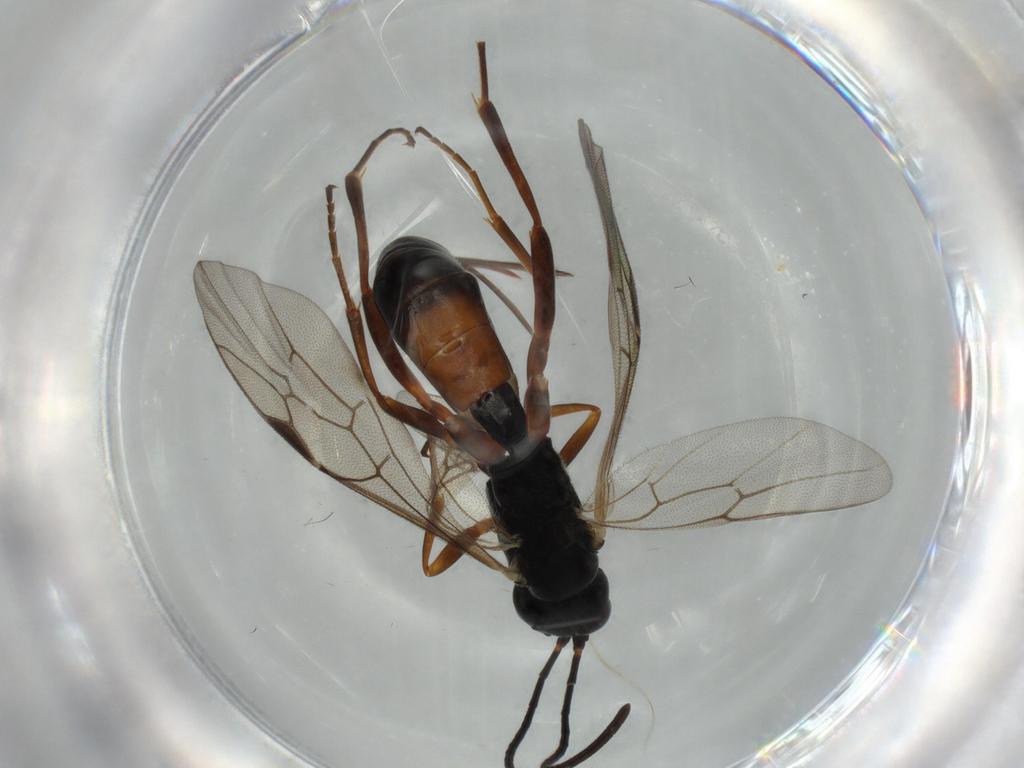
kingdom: Animalia
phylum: Arthropoda
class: Insecta
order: Hymenoptera
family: Ichneumonidae
